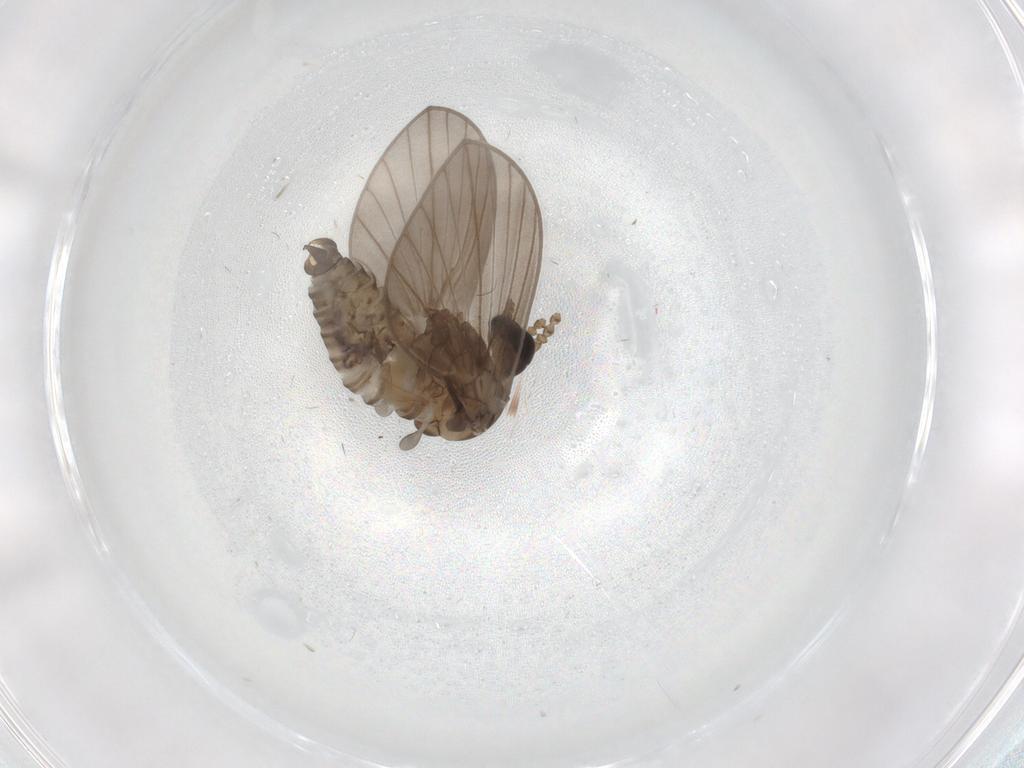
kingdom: Animalia
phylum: Arthropoda
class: Insecta
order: Diptera
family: Psychodidae
